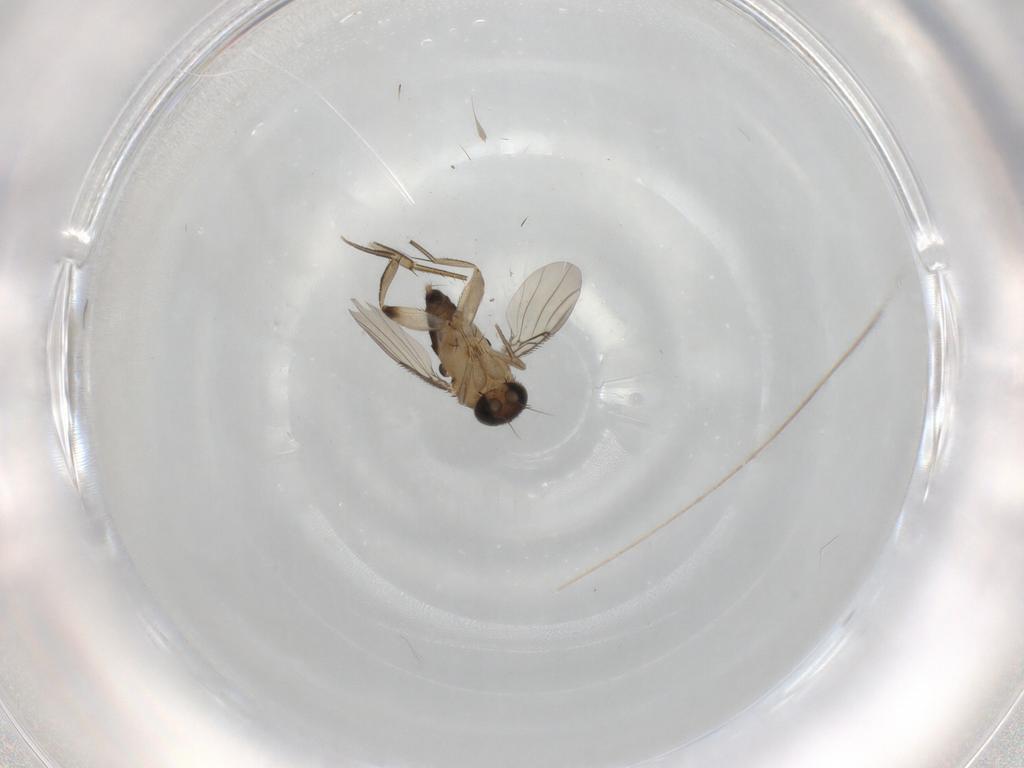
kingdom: Animalia
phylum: Arthropoda
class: Insecta
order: Diptera
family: Phoridae
